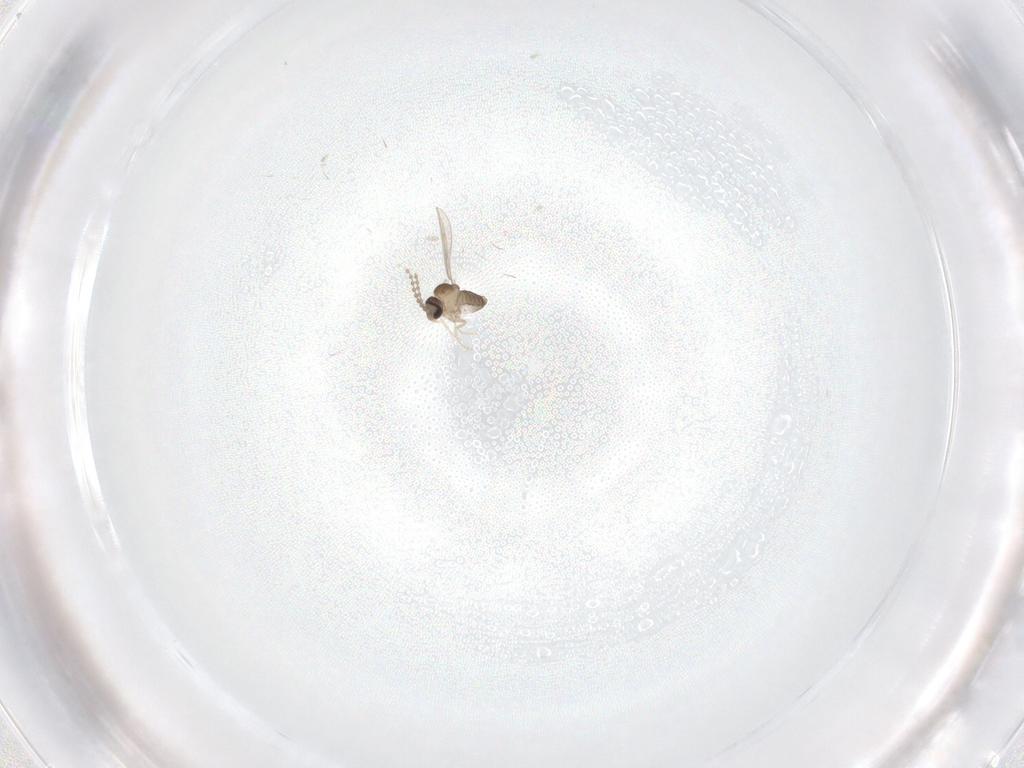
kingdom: Animalia
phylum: Arthropoda
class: Insecta
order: Diptera
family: Cecidomyiidae
